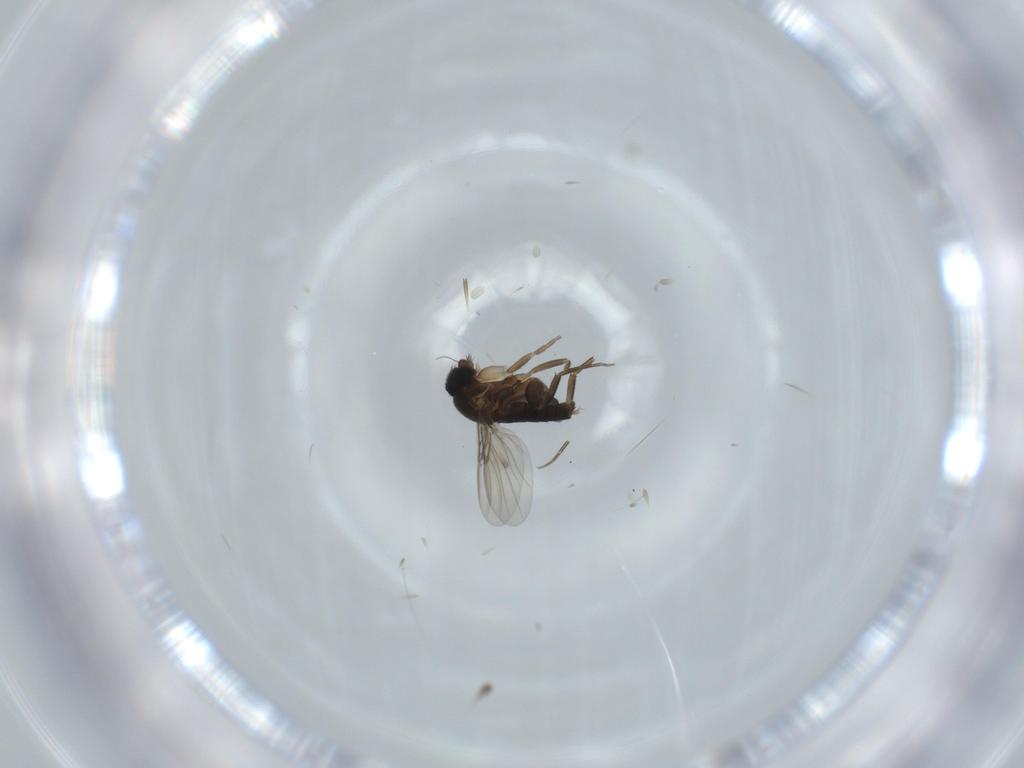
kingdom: Animalia
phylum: Arthropoda
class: Insecta
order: Diptera
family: Phoridae
